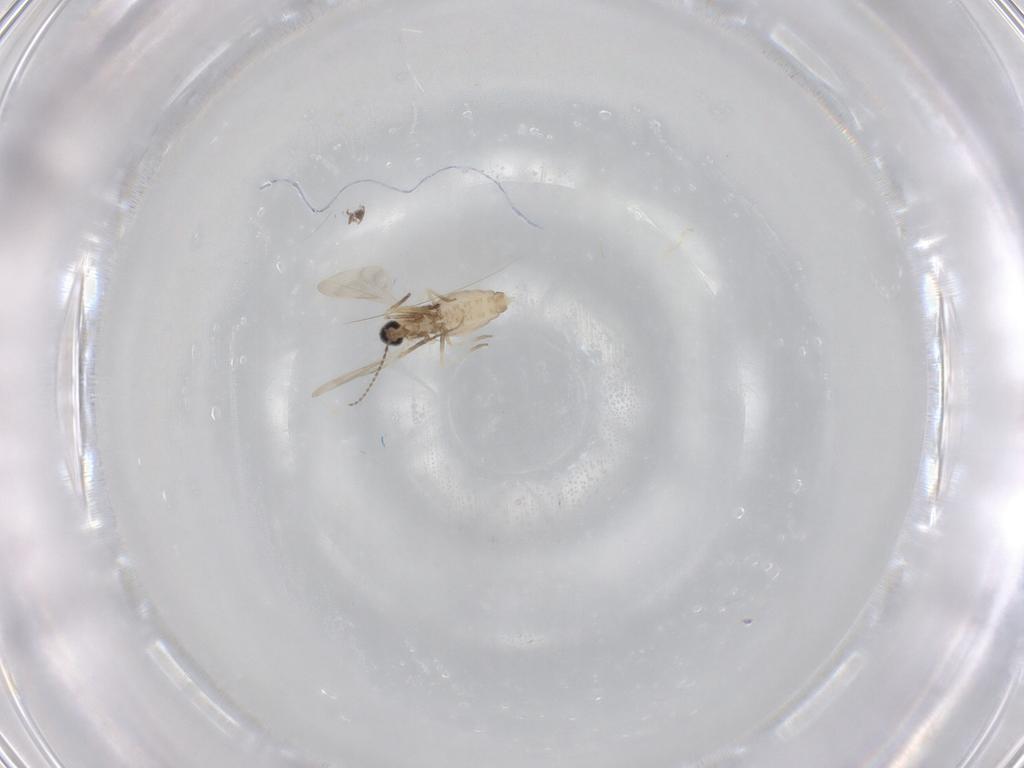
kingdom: Animalia
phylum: Arthropoda
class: Insecta
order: Diptera
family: Cecidomyiidae
